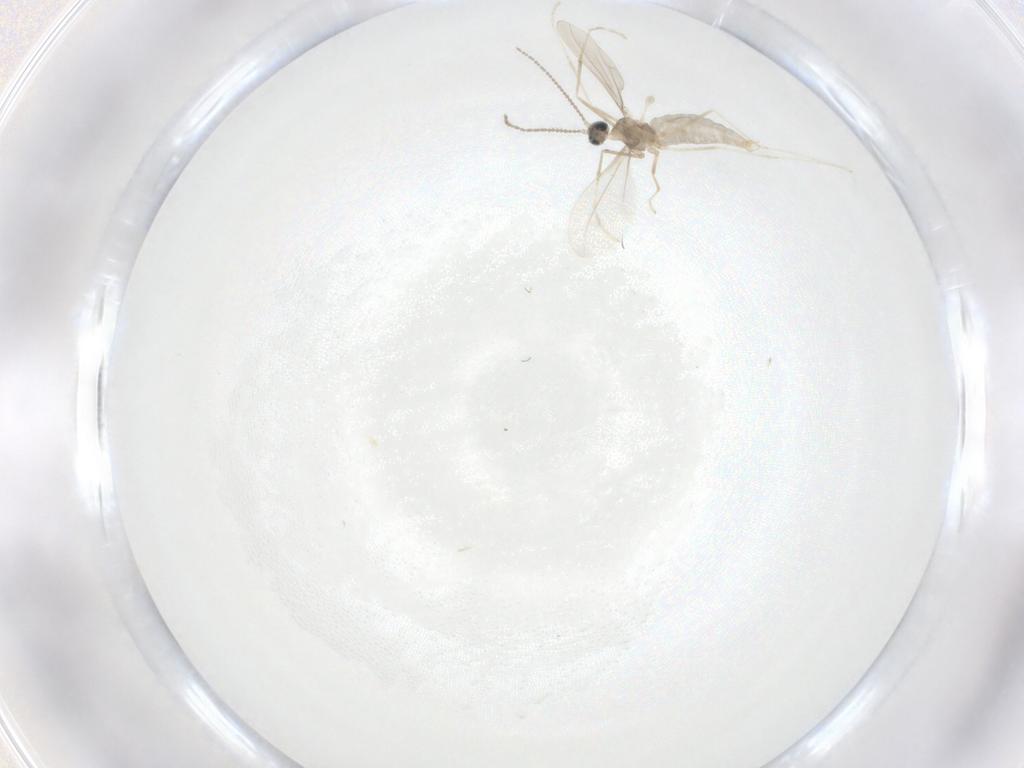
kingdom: Animalia
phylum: Arthropoda
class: Insecta
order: Diptera
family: Cecidomyiidae
